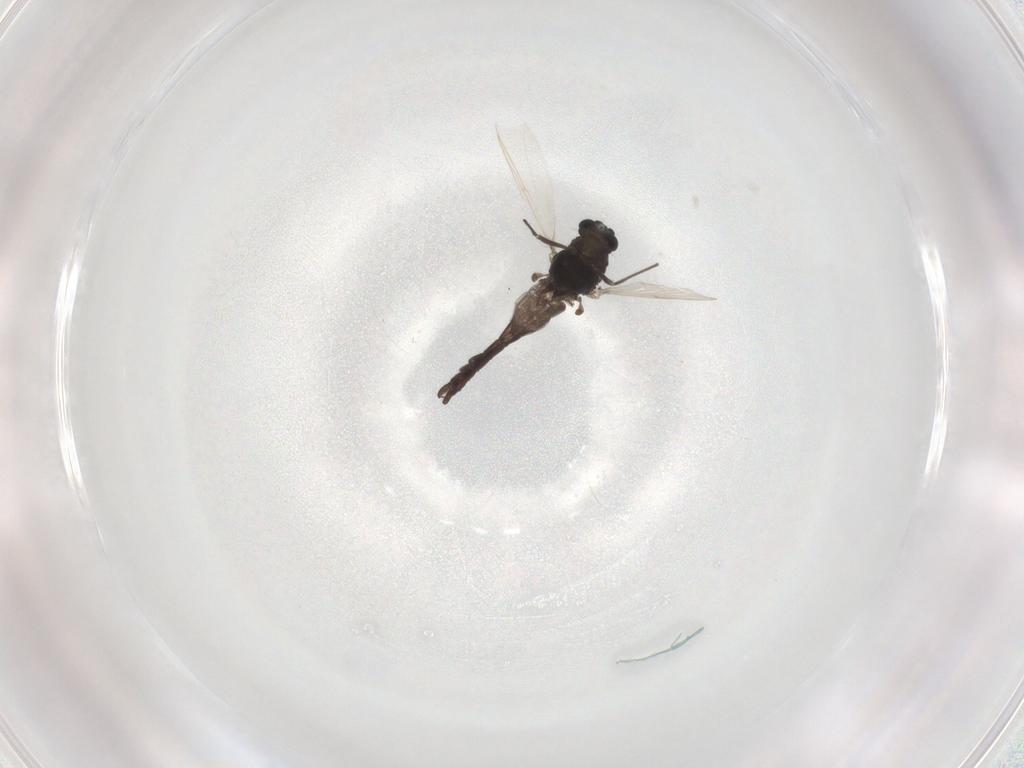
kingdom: Animalia
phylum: Arthropoda
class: Insecta
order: Diptera
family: Chironomidae
